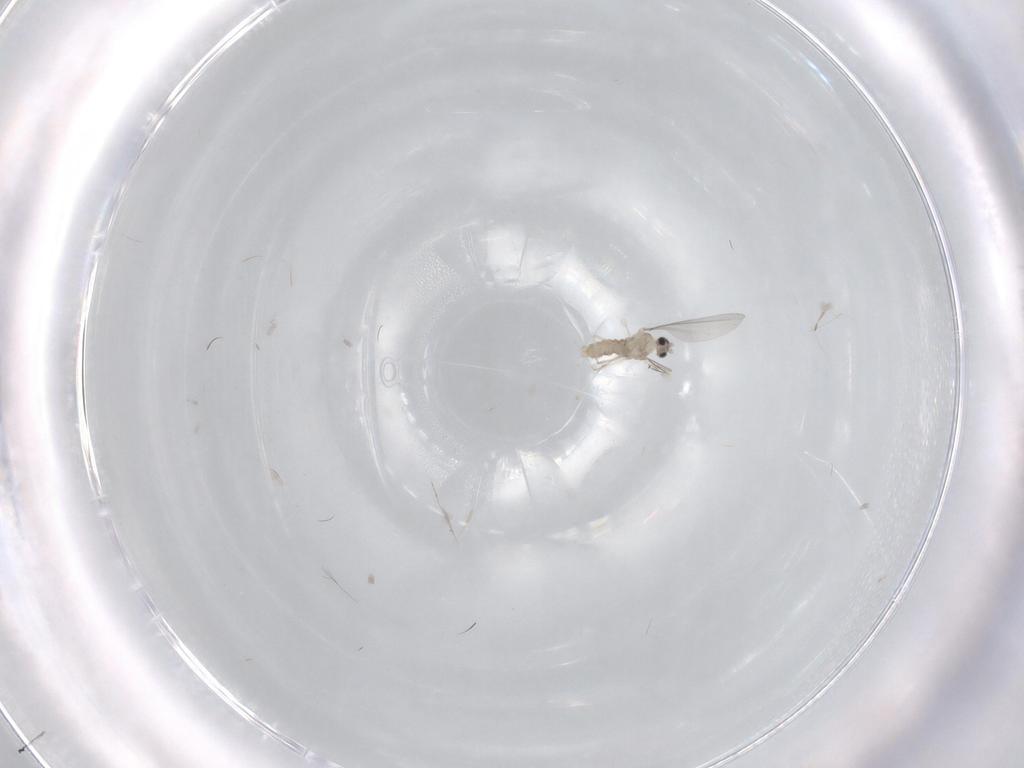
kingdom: Animalia
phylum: Arthropoda
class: Insecta
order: Diptera
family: Cecidomyiidae
